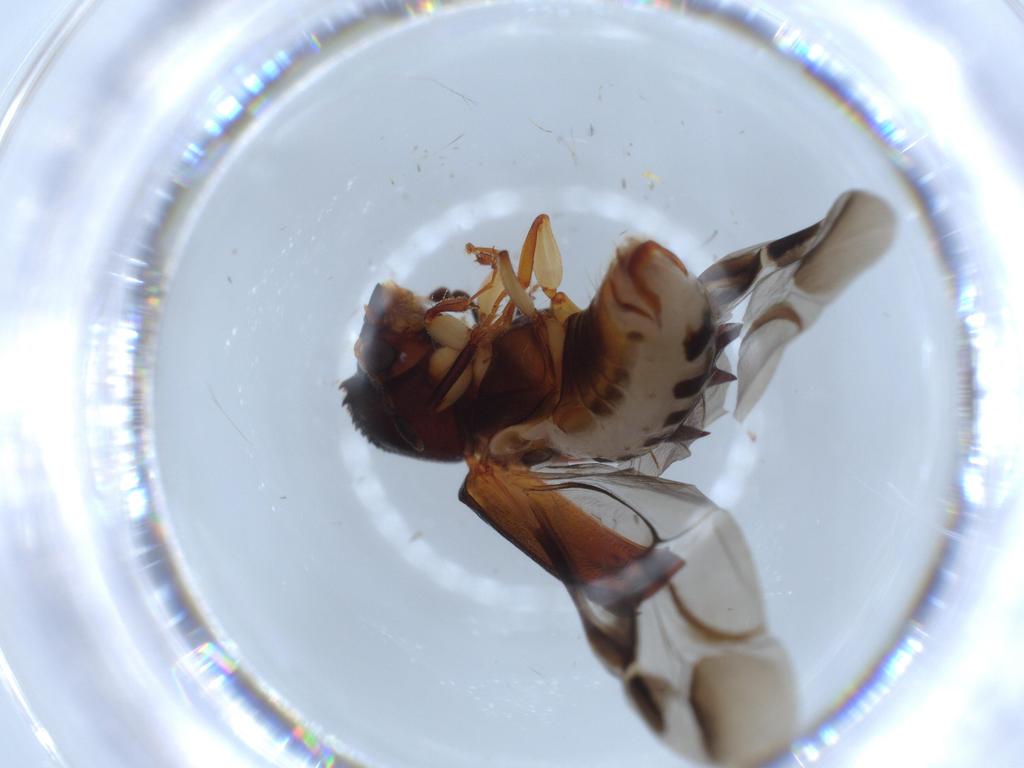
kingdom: Animalia
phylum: Arthropoda
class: Insecta
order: Coleoptera
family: Bostrichidae
